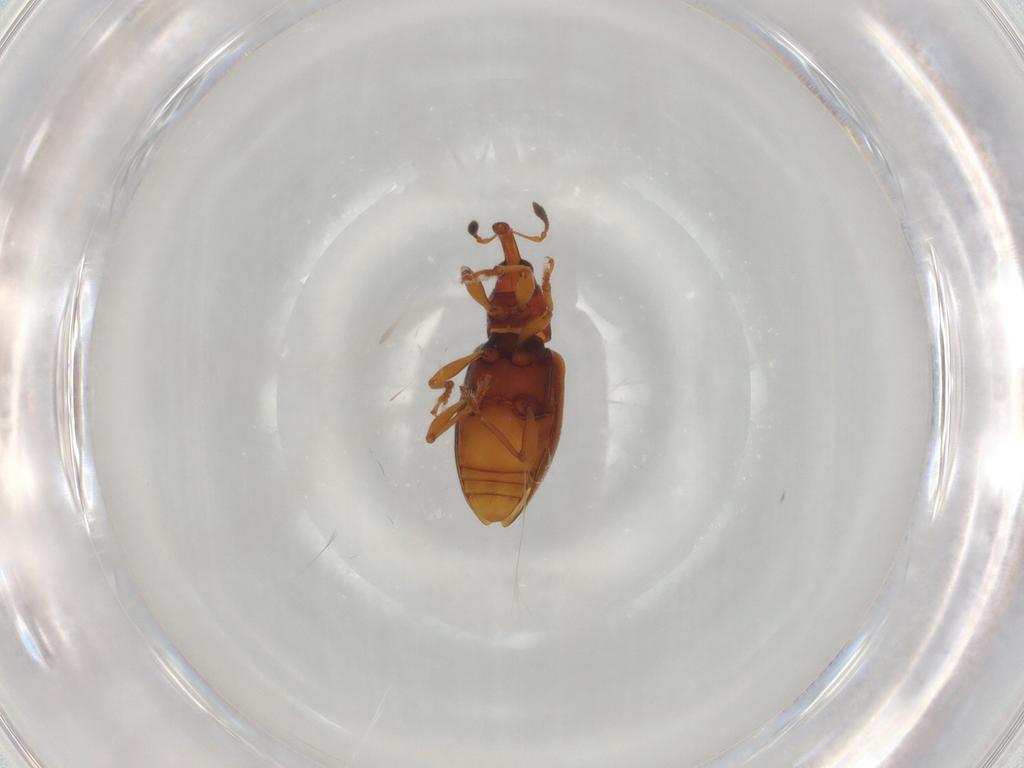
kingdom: Animalia
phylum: Arthropoda
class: Insecta
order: Coleoptera
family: Curculionidae
